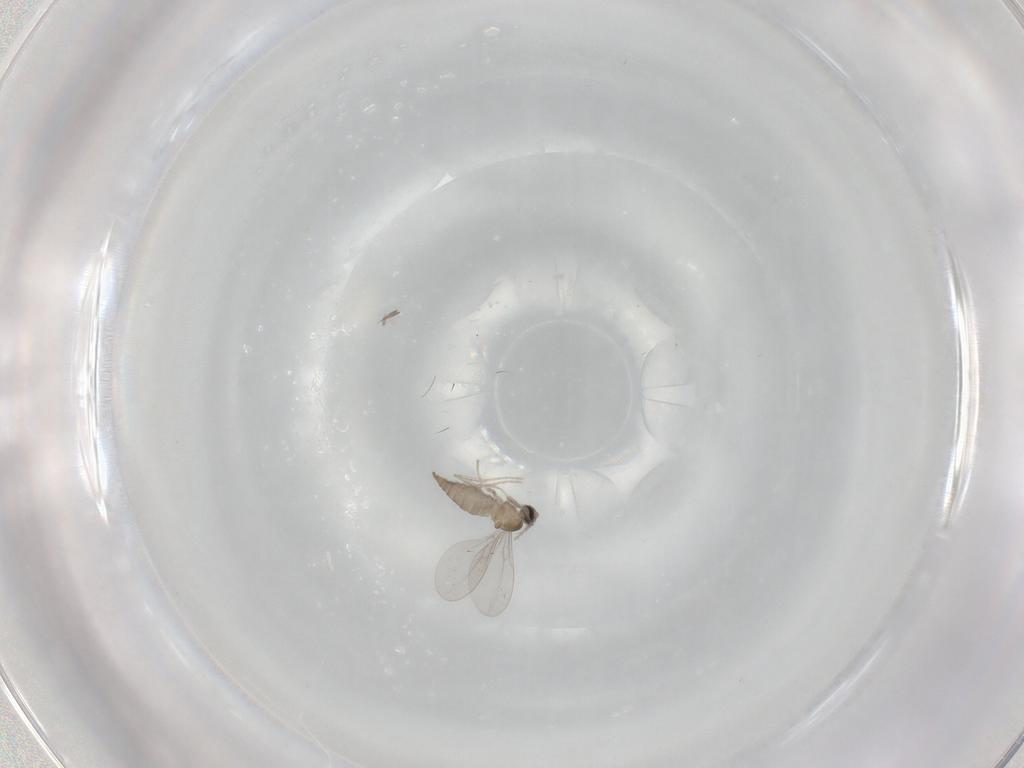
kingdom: Animalia
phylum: Arthropoda
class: Insecta
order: Diptera
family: Cecidomyiidae
